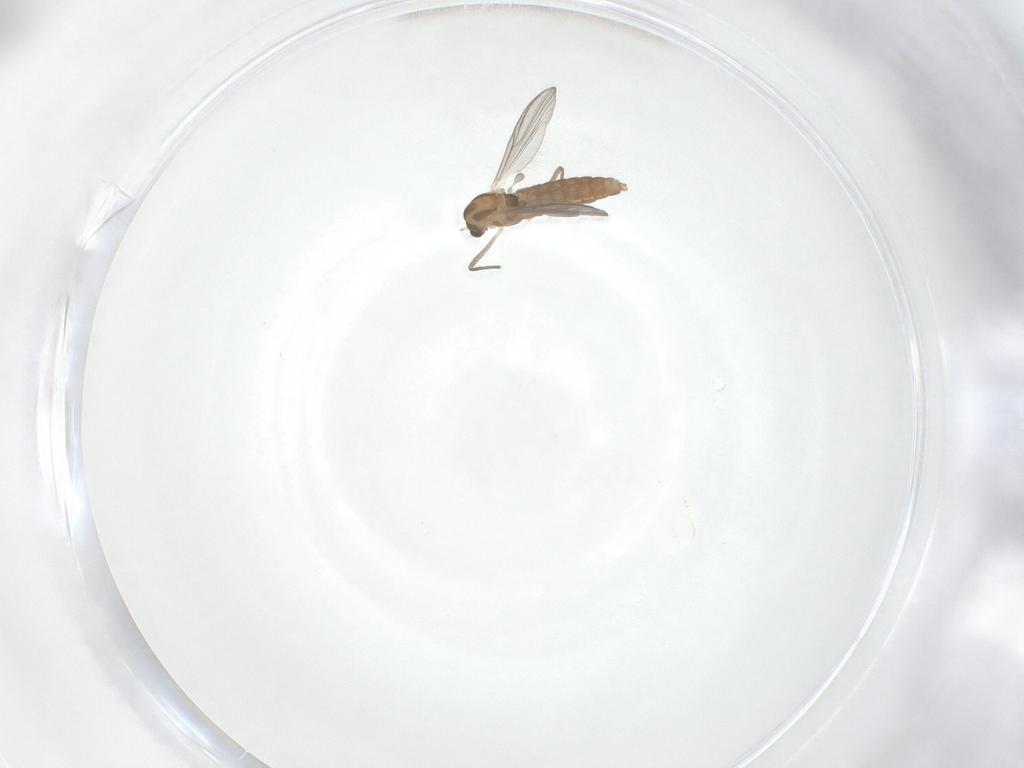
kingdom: Animalia
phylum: Arthropoda
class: Insecta
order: Diptera
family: Chironomidae
